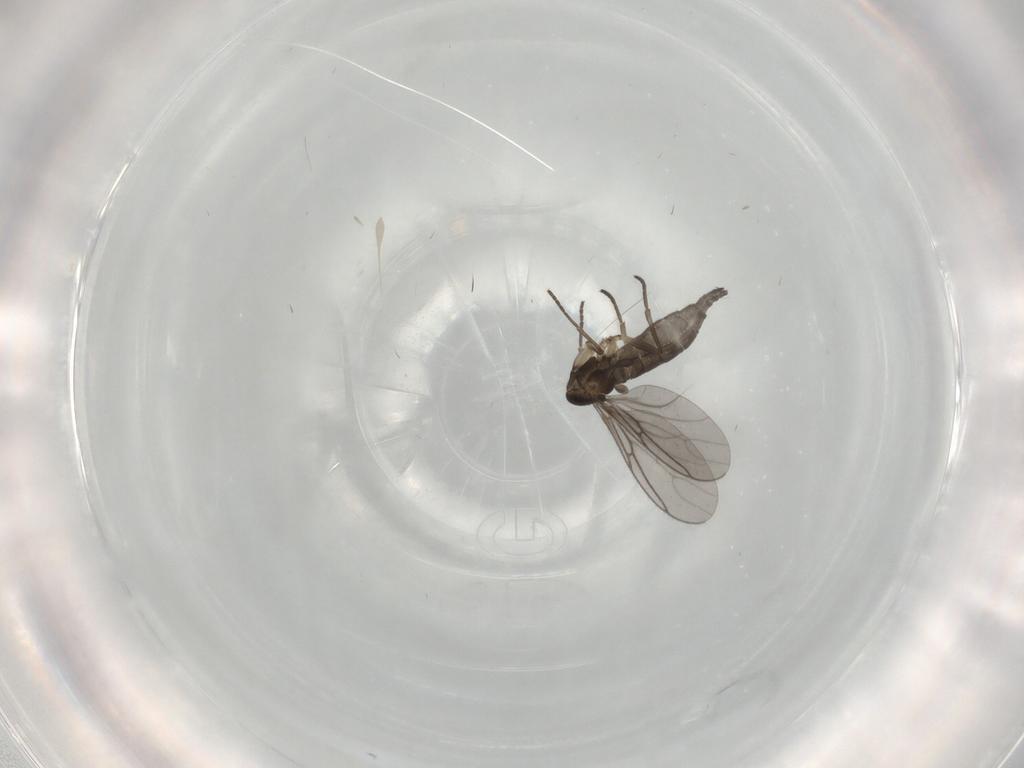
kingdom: Animalia
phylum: Arthropoda
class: Insecta
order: Diptera
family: Sciaridae
